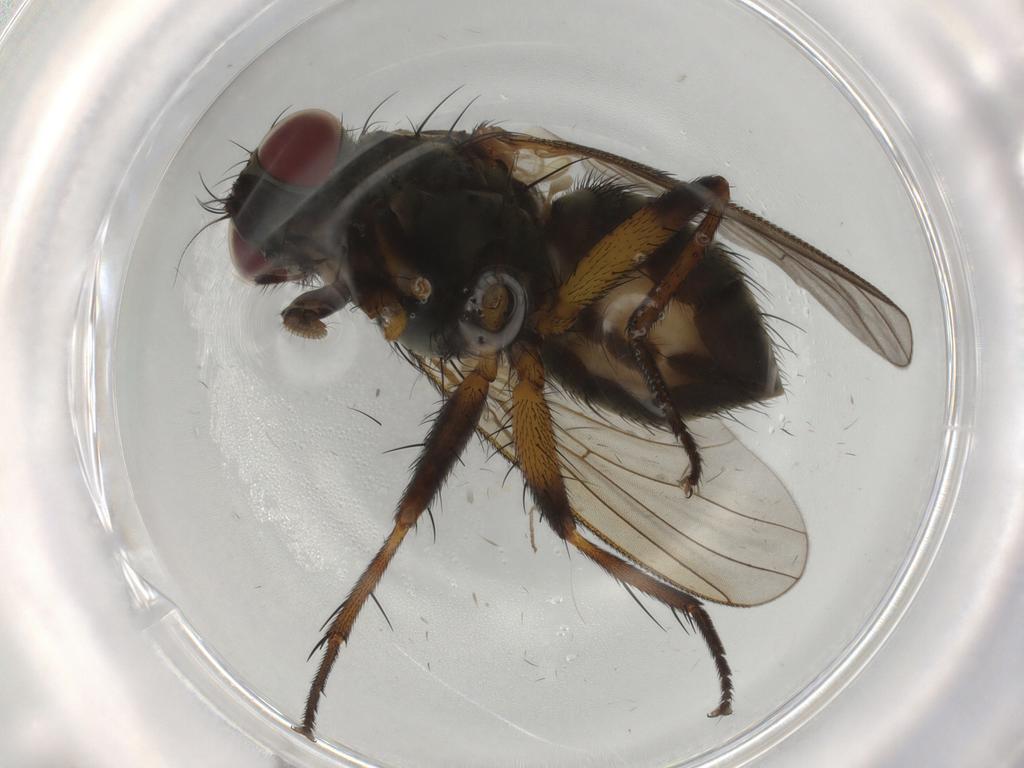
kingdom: Animalia
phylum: Arthropoda
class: Insecta
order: Diptera
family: Muscidae
